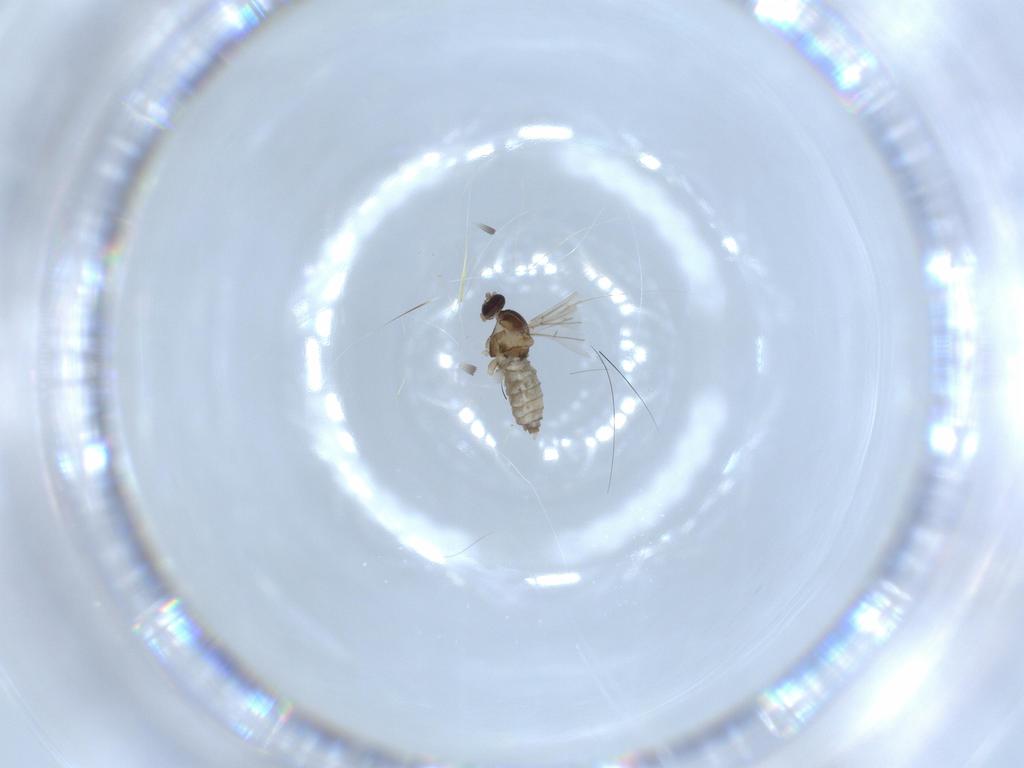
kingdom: Animalia
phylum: Arthropoda
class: Insecta
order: Diptera
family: Cecidomyiidae
